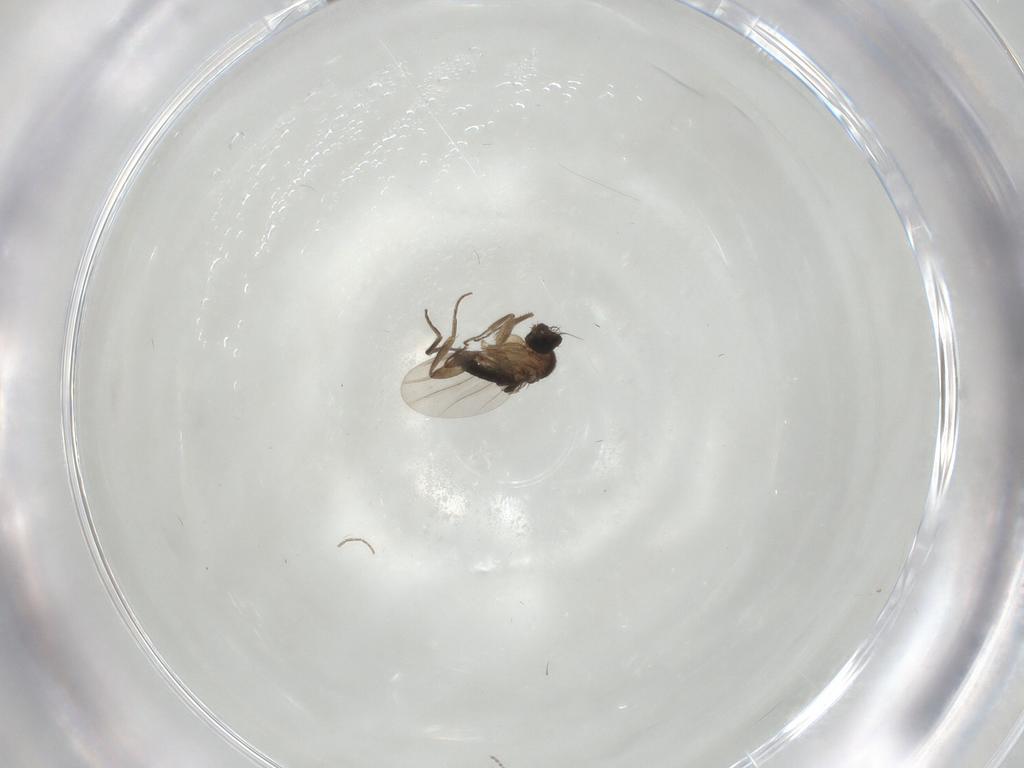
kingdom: Animalia
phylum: Arthropoda
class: Insecta
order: Diptera
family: Phoridae
